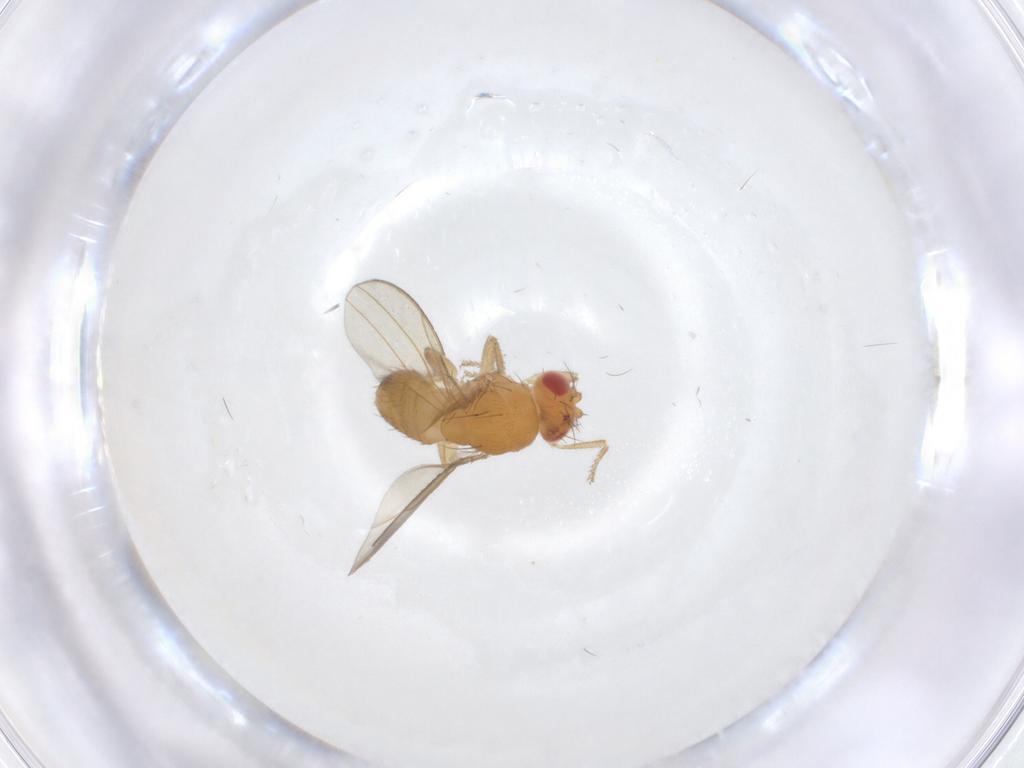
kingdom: Animalia
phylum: Arthropoda
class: Insecta
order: Diptera
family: Drosophilidae
